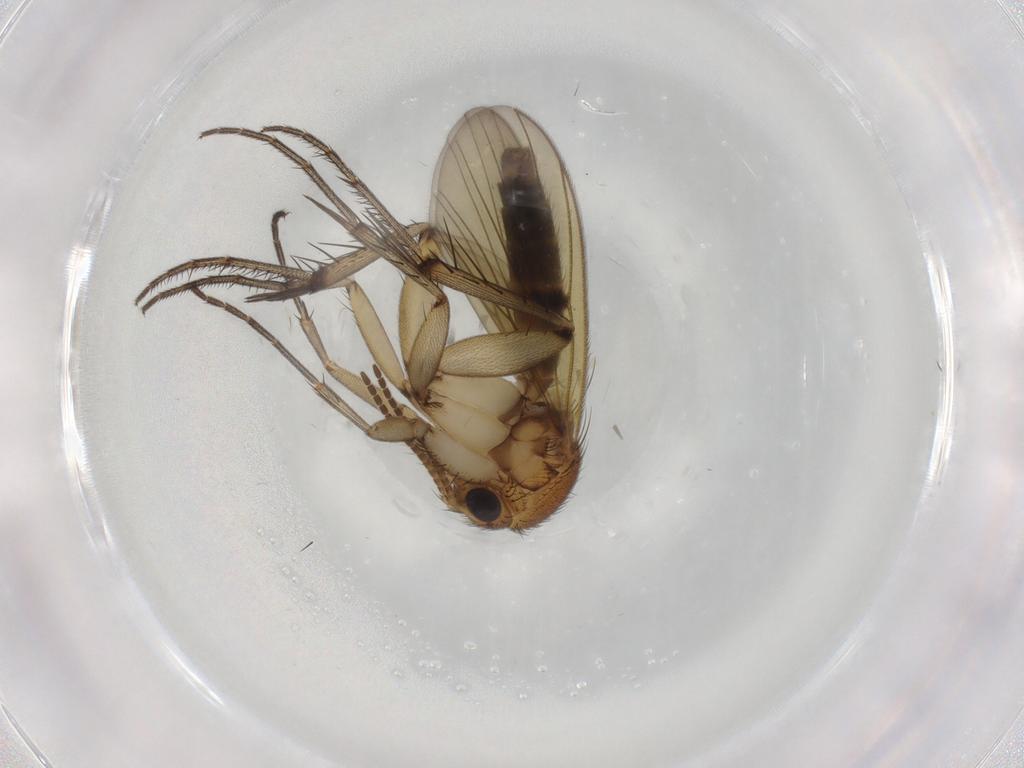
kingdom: Animalia
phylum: Arthropoda
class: Insecta
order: Diptera
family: Mycetophilidae
